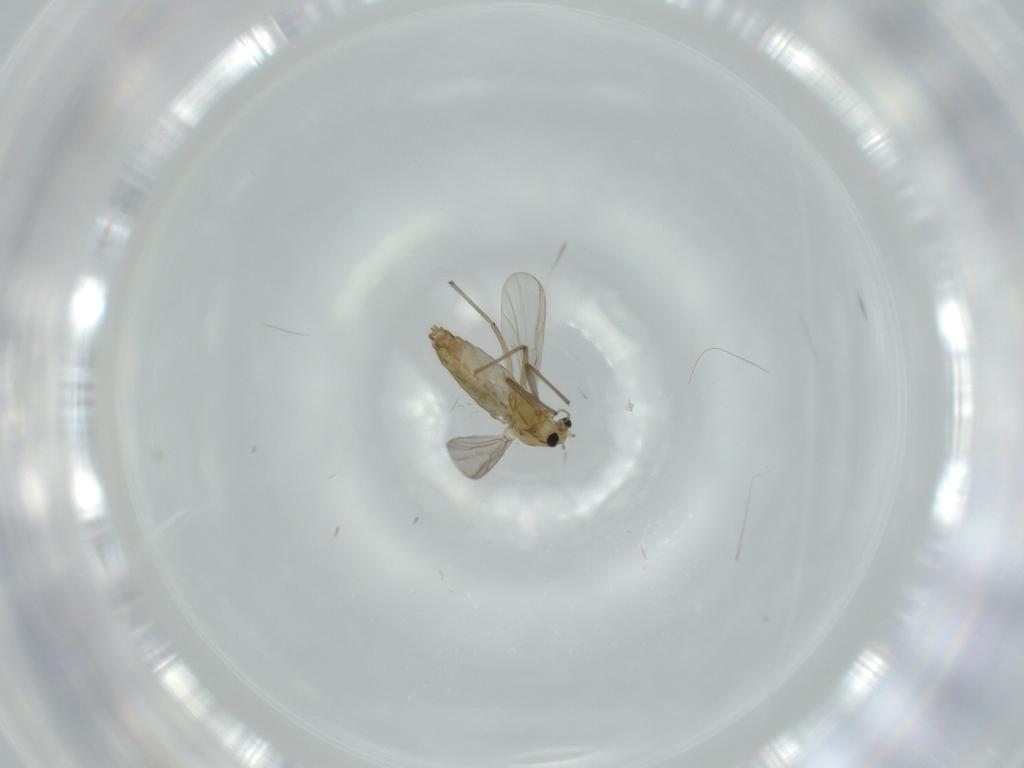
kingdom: Animalia
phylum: Arthropoda
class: Insecta
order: Diptera
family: Chironomidae
